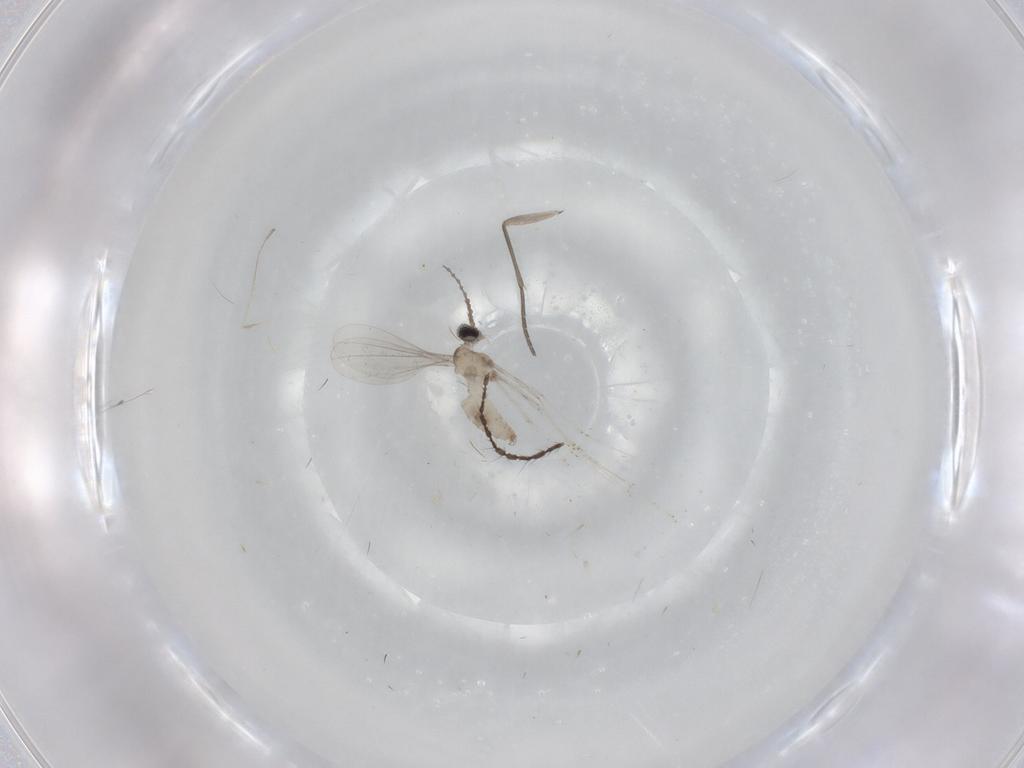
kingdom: Animalia
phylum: Arthropoda
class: Insecta
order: Diptera
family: Cecidomyiidae
